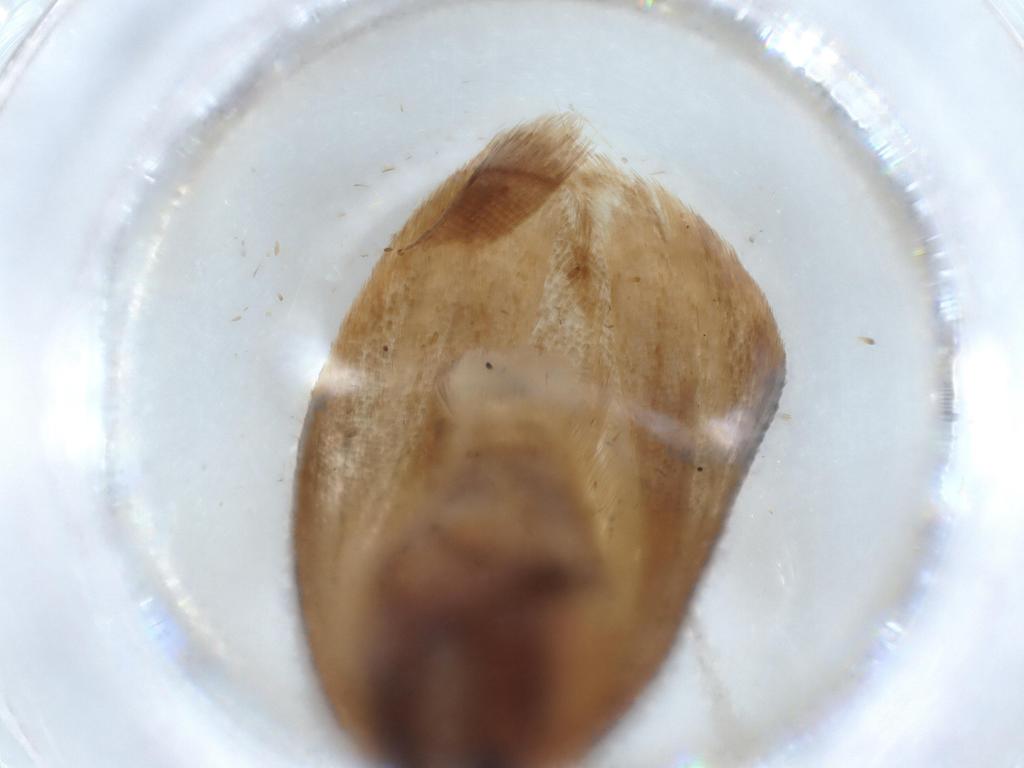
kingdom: Animalia
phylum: Arthropoda
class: Insecta
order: Lepidoptera
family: Xyloryctidae
